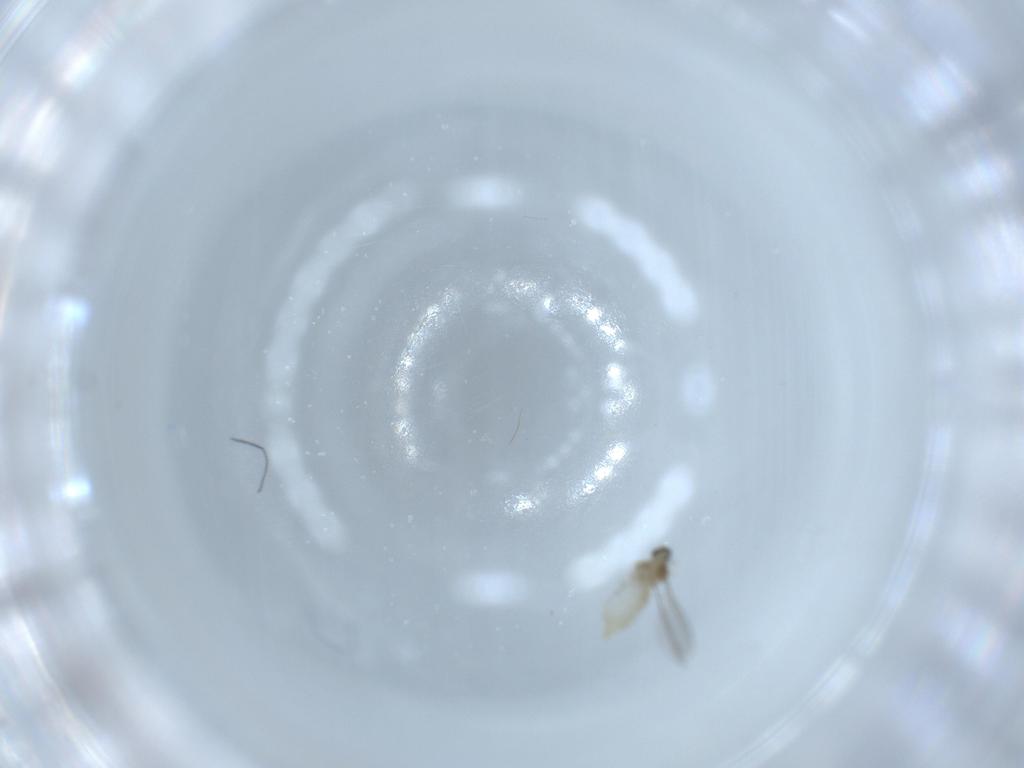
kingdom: Animalia
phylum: Arthropoda
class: Insecta
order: Diptera
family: Cecidomyiidae
